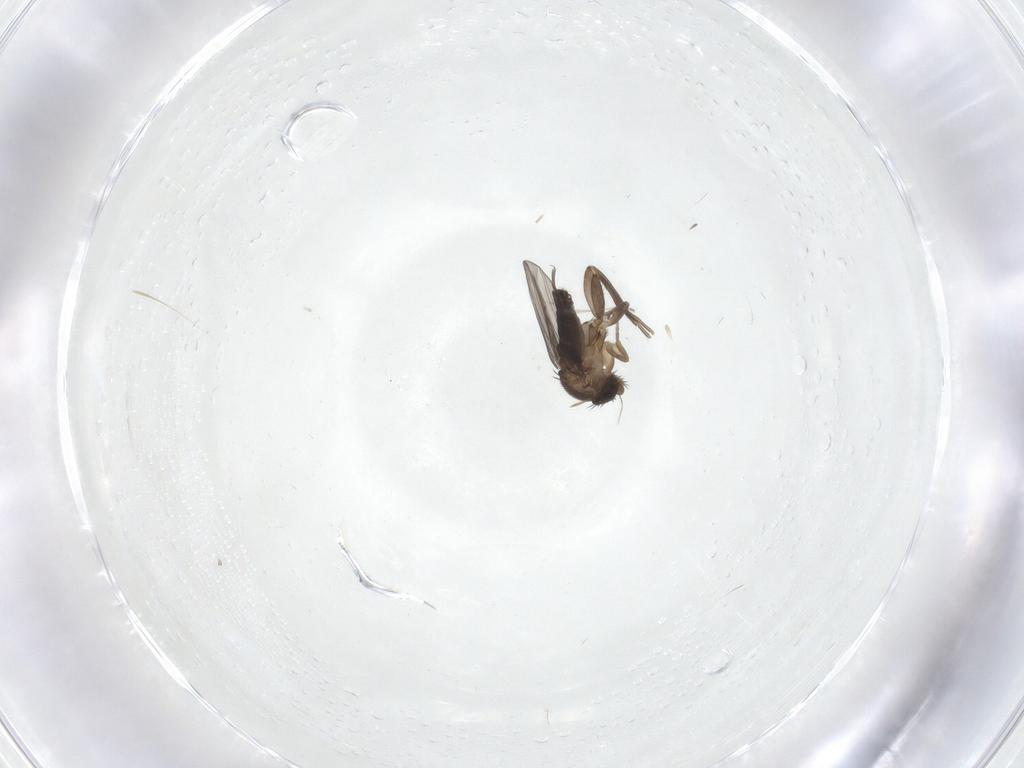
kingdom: Animalia
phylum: Arthropoda
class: Insecta
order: Diptera
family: Phoridae
